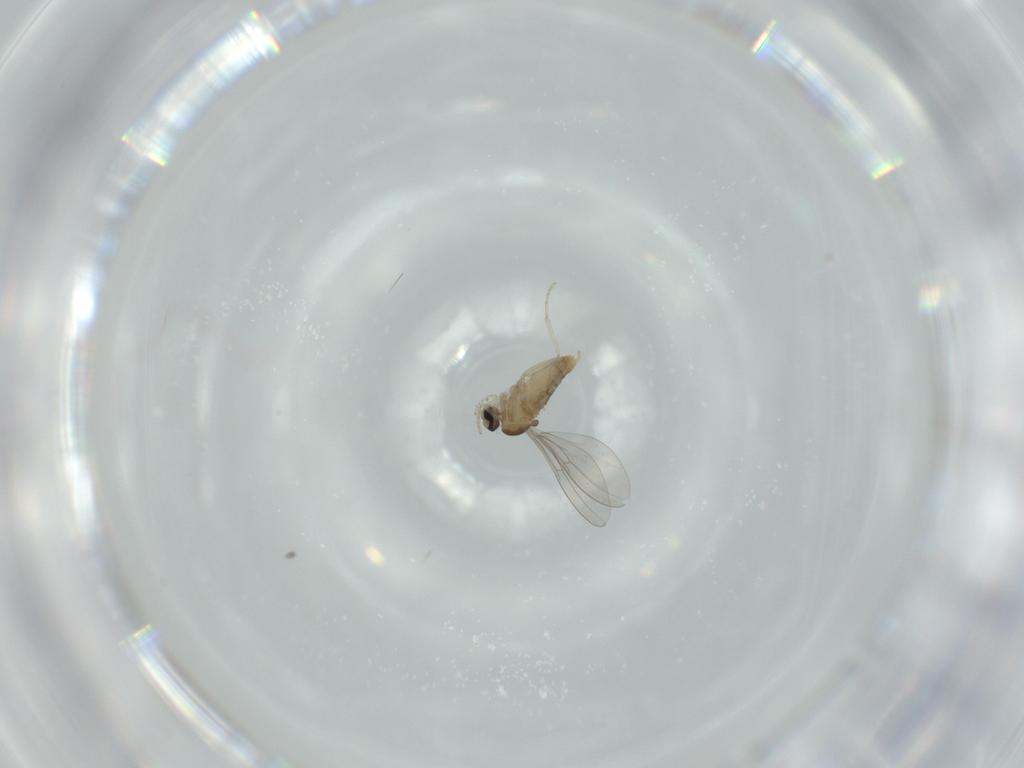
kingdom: Animalia
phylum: Arthropoda
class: Insecta
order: Diptera
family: Cecidomyiidae
